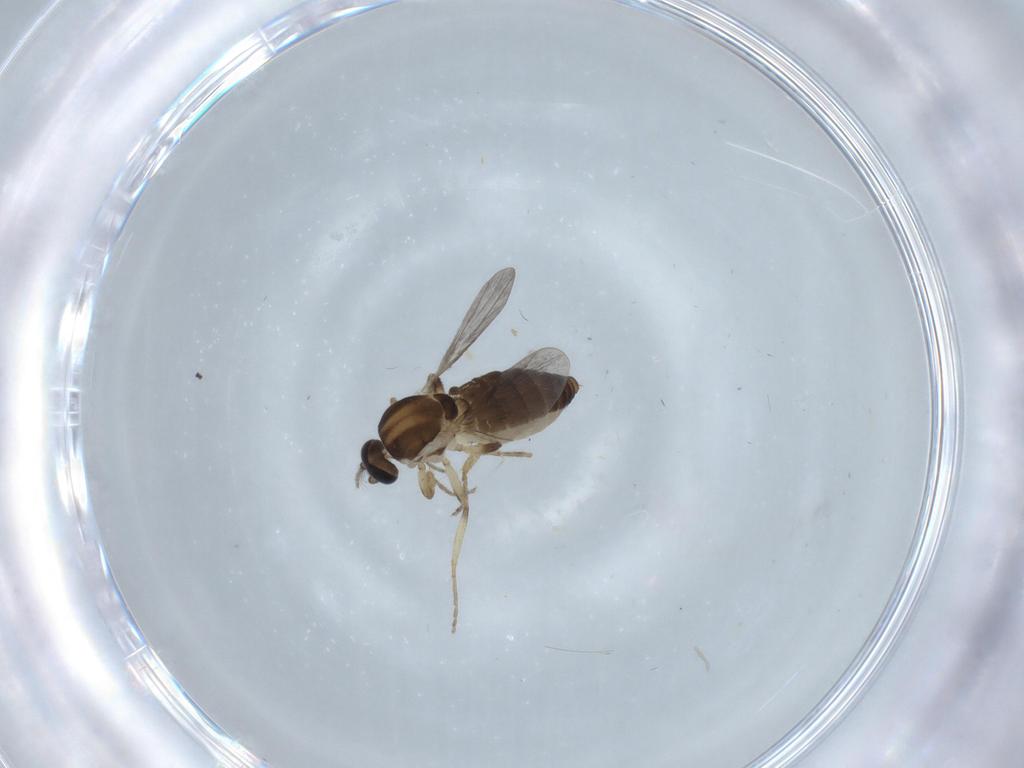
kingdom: Animalia
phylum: Arthropoda
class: Insecta
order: Diptera
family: Ceratopogonidae
